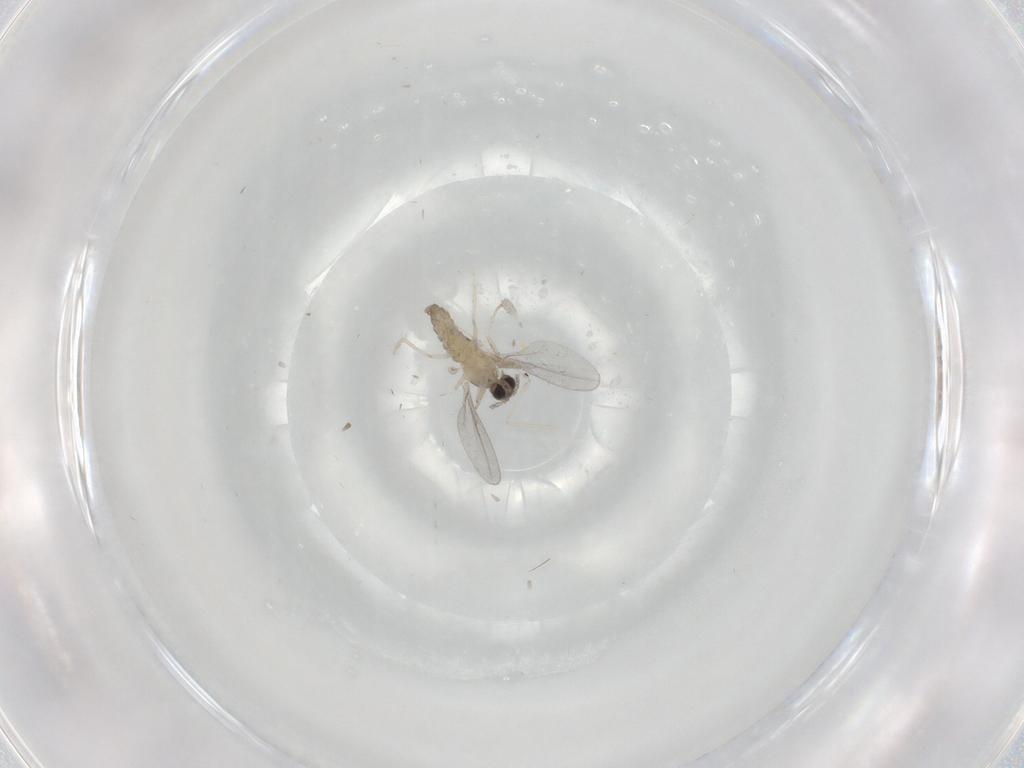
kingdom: Animalia
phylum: Arthropoda
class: Insecta
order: Diptera
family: Cecidomyiidae
